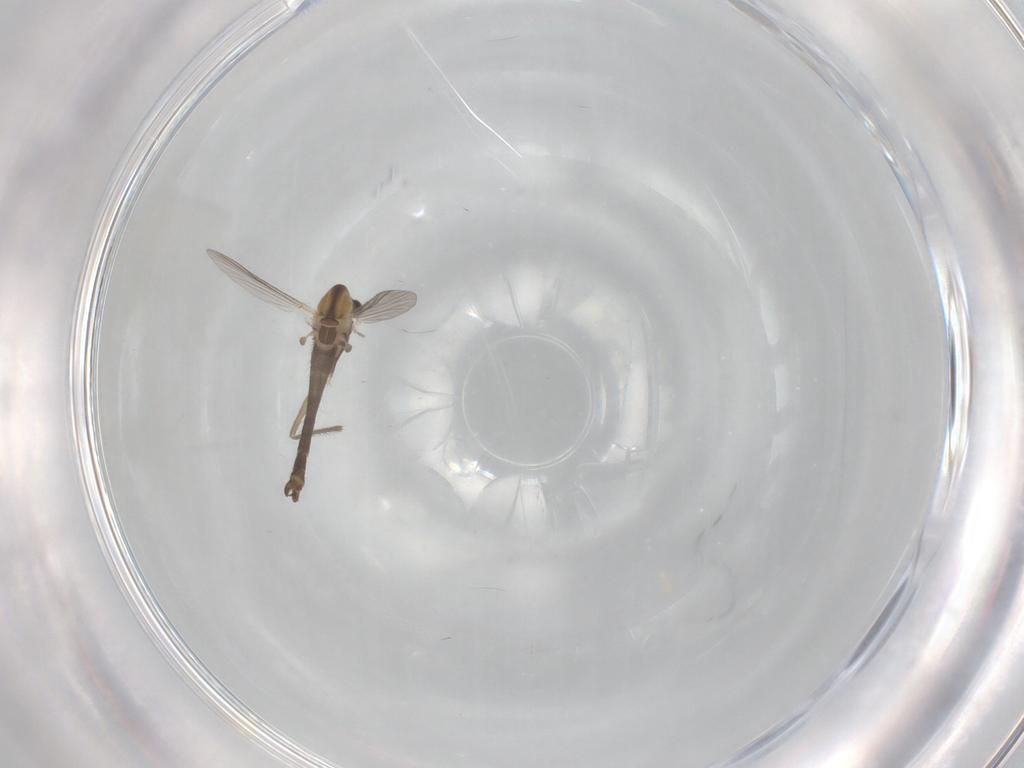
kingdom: Animalia
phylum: Arthropoda
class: Insecta
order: Diptera
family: Chironomidae
